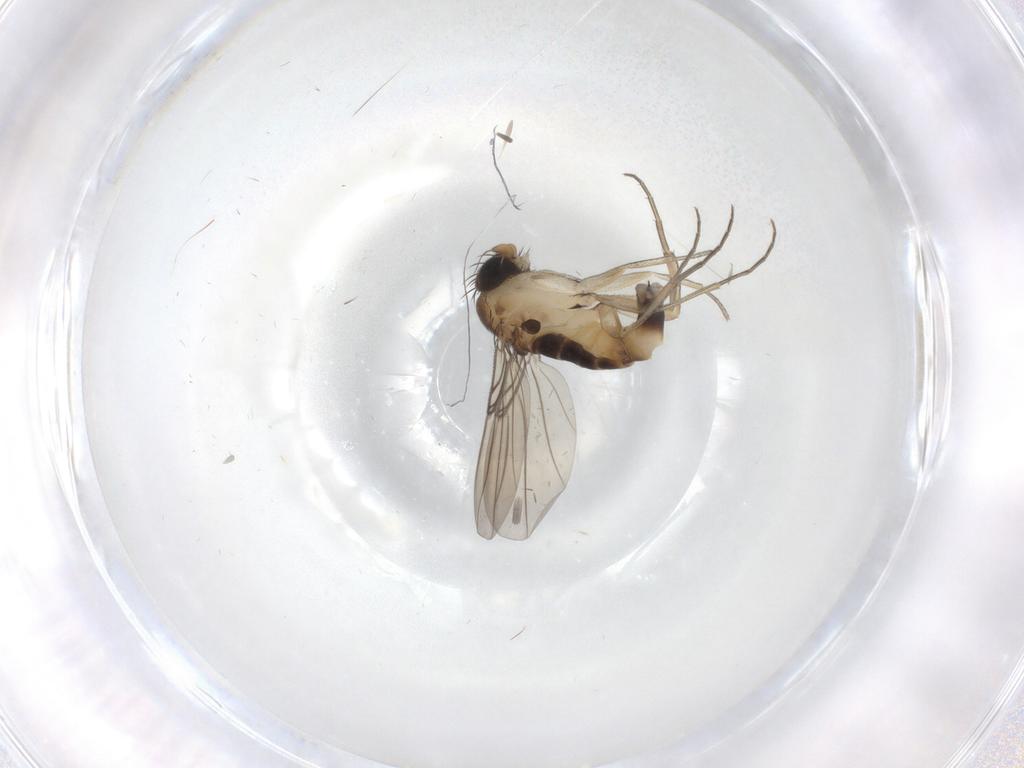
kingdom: Animalia
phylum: Arthropoda
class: Insecta
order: Diptera
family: Phoridae
